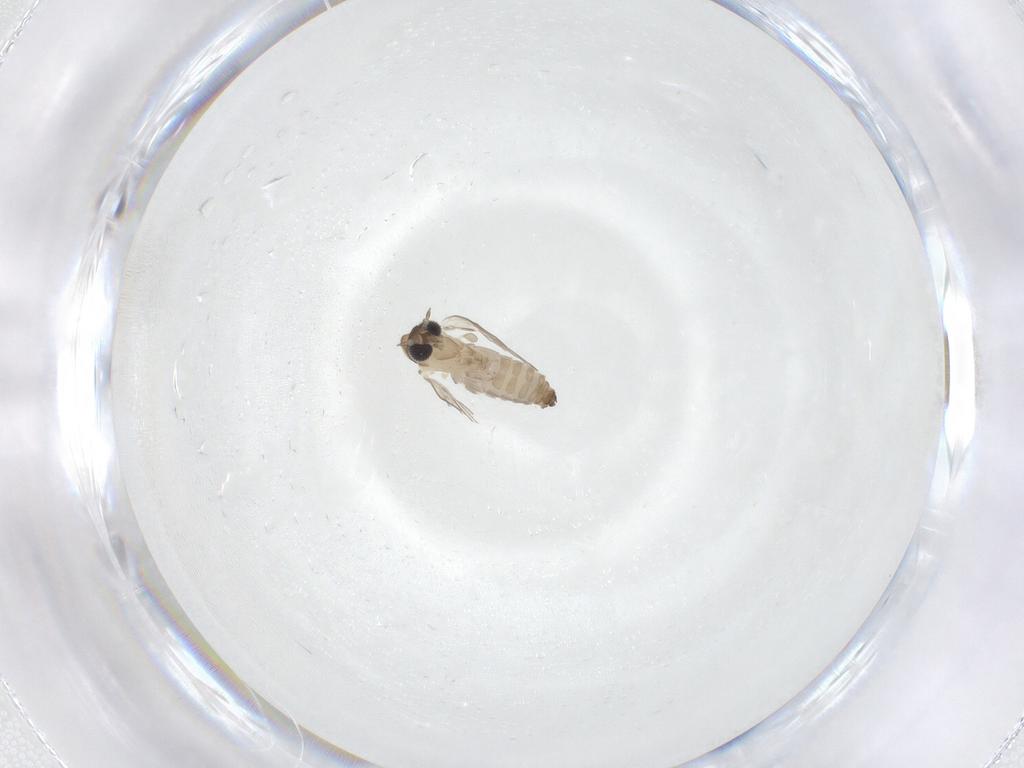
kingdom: Animalia
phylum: Arthropoda
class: Insecta
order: Diptera
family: Psychodidae
